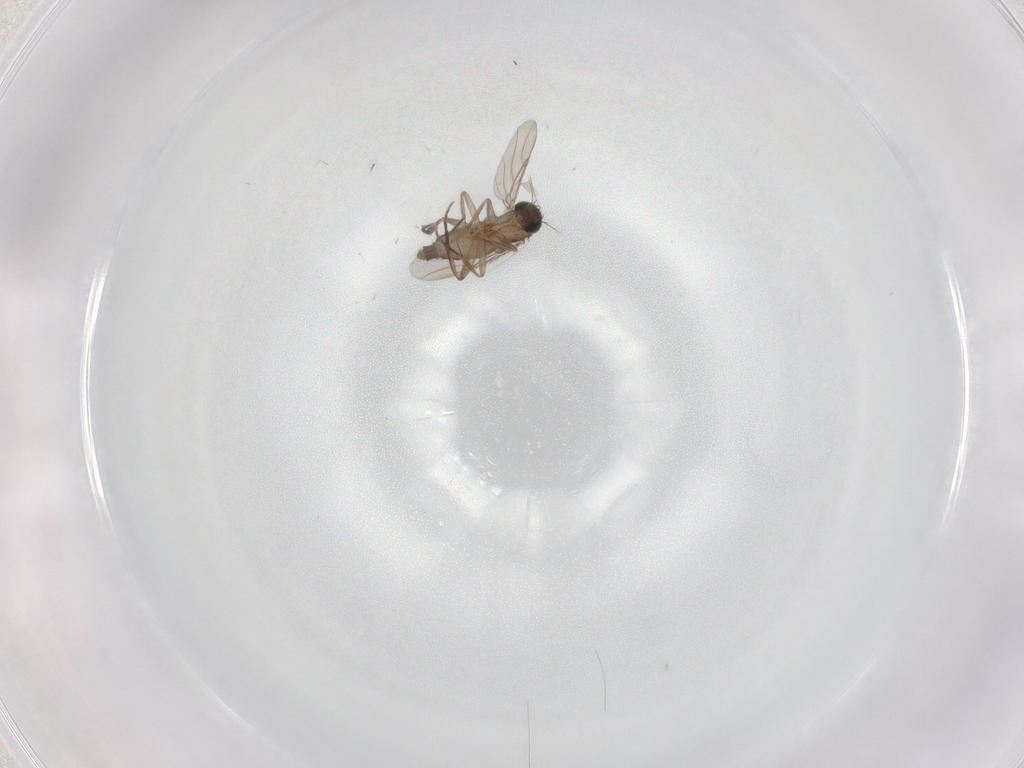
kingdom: Animalia
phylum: Arthropoda
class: Insecta
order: Diptera
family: Phoridae
